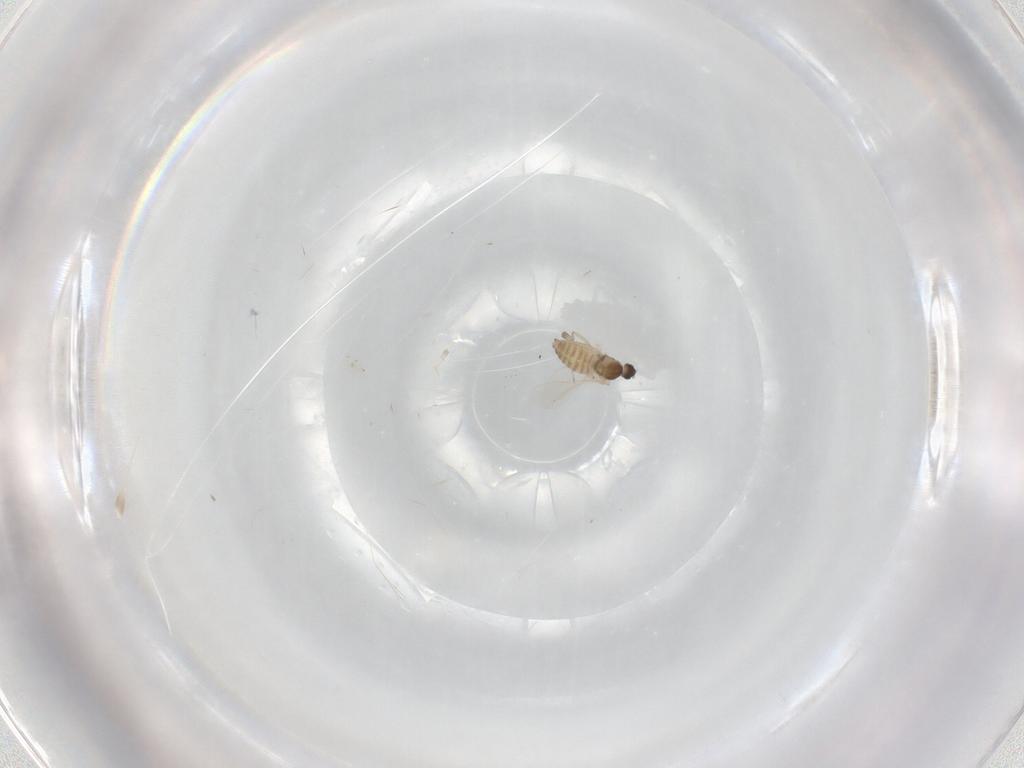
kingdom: Animalia
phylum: Arthropoda
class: Insecta
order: Diptera
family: Cecidomyiidae
